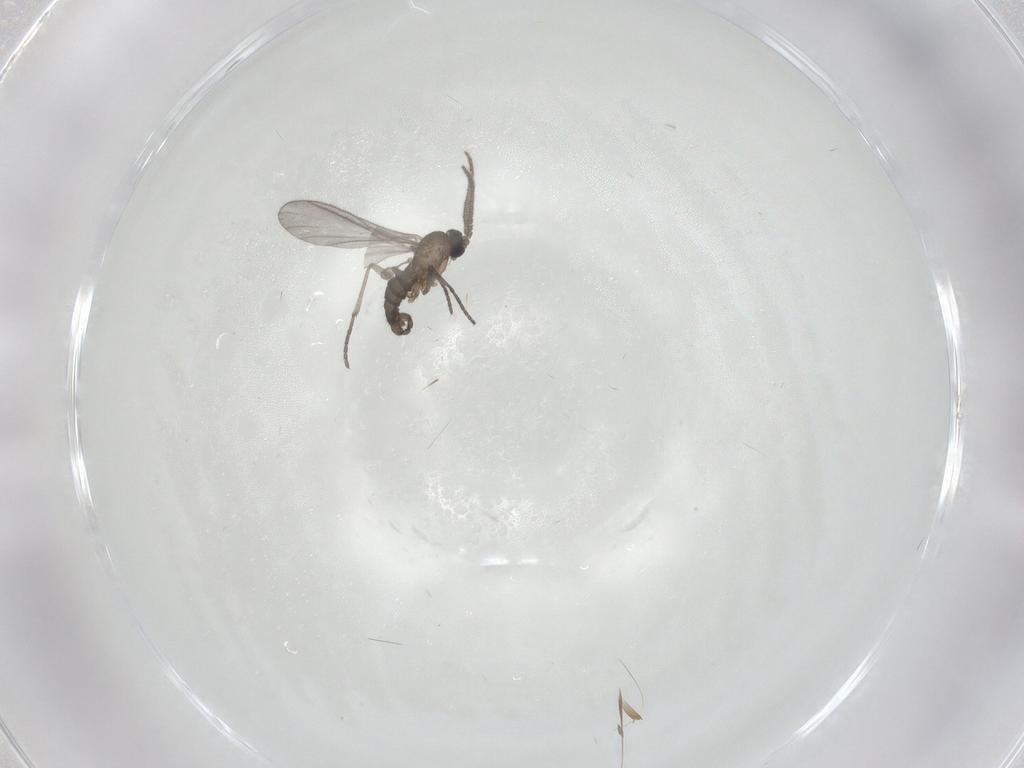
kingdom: Animalia
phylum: Arthropoda
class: Insecta
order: Diptera
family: Sciaridae
